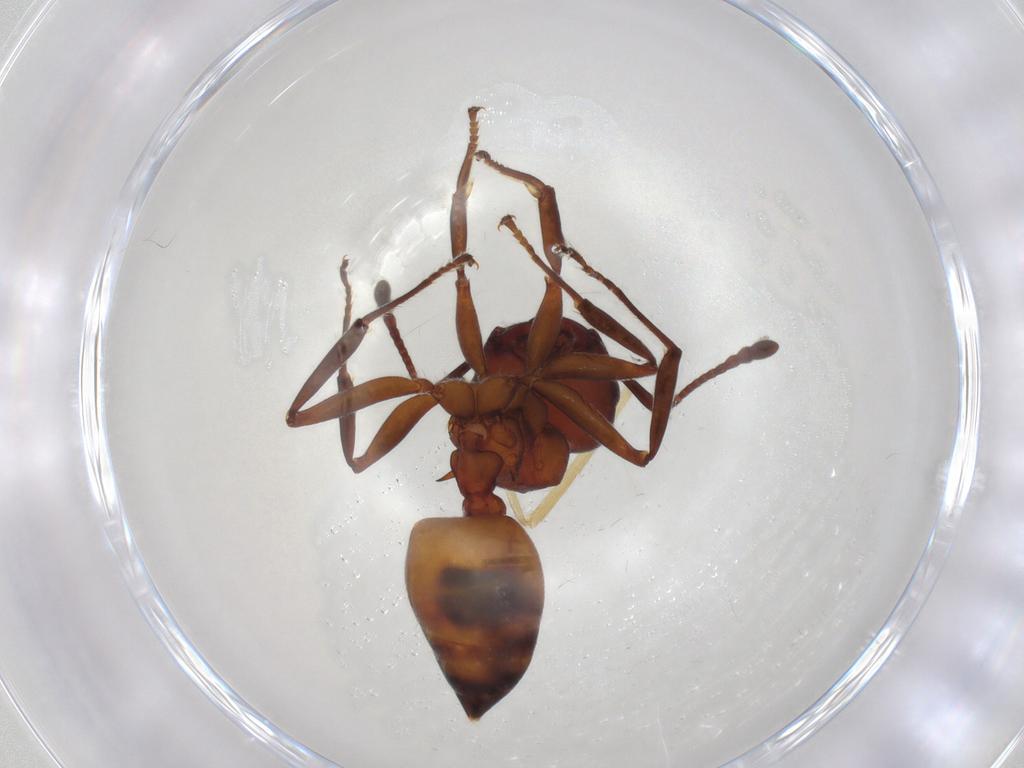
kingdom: Animalia
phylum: Arthropoda
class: Insecta
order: Hymenoptera
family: Formicidae
